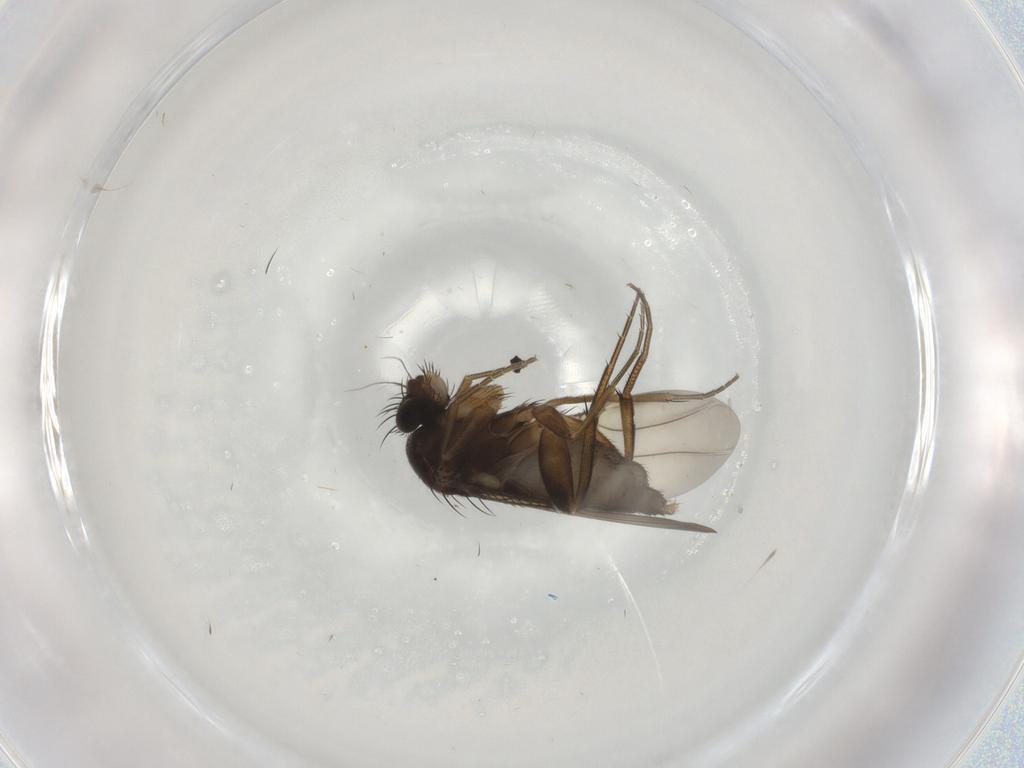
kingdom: Animalia
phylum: Arthropoda
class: Insecta
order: Diptera
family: Phoridae
